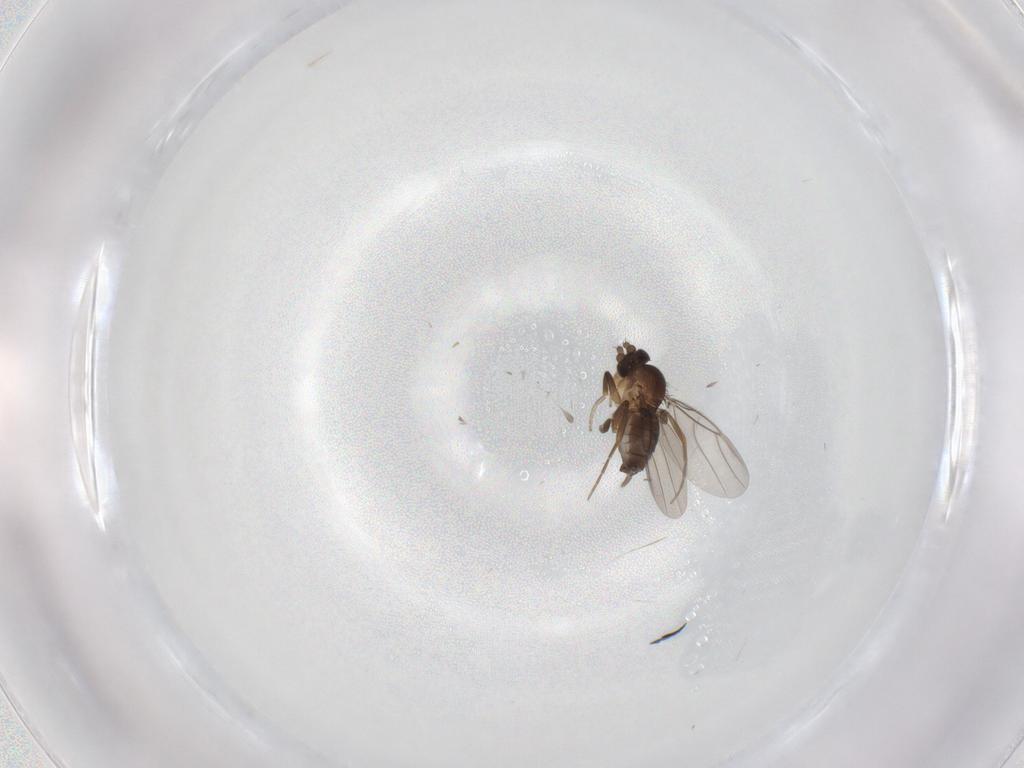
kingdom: Animalia
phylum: Arthropoda
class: Insecta
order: Diptera
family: Phoridae
